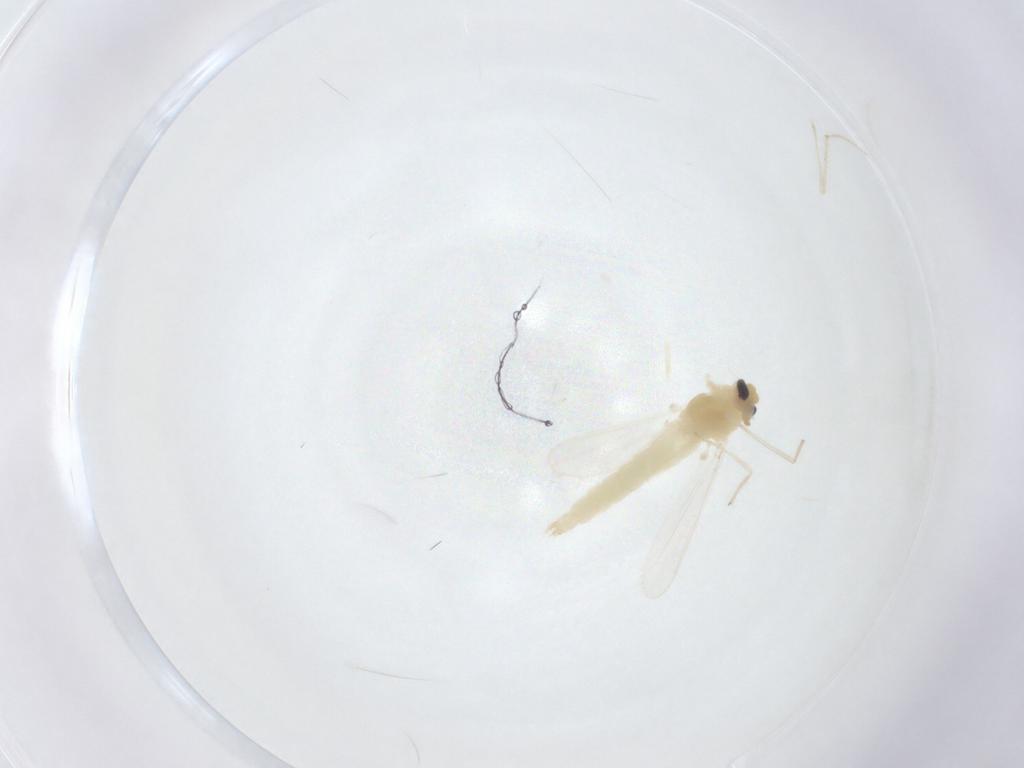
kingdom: Animalia
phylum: Arthropoda
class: Insecta
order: Diptera
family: Chironomidae
